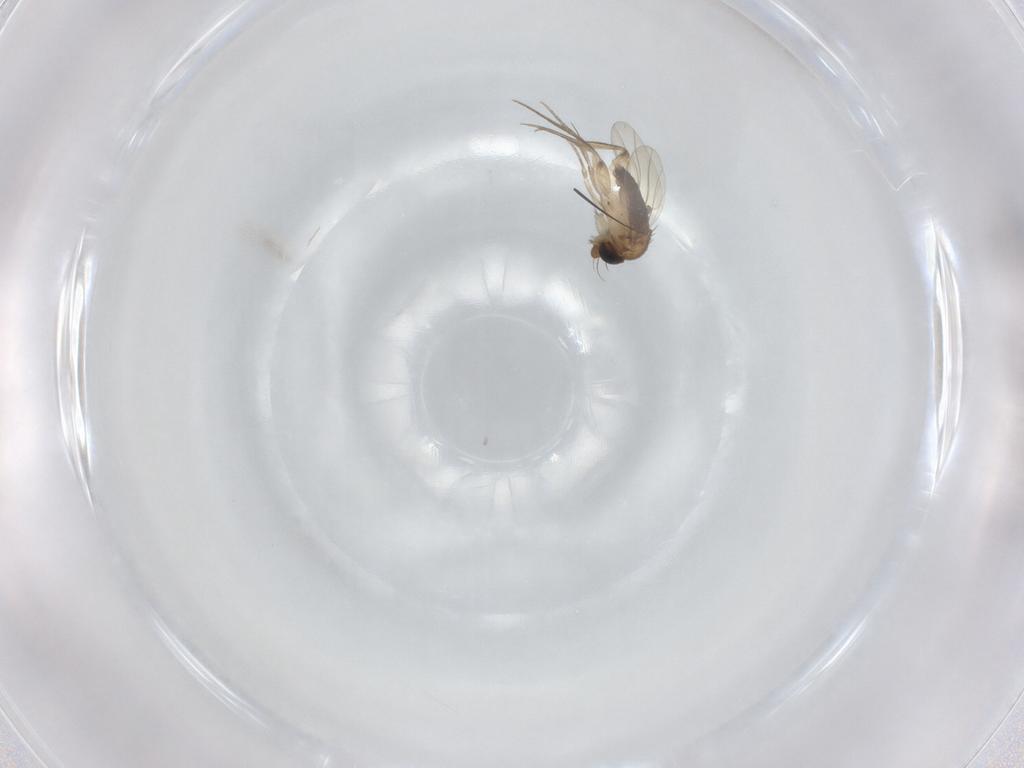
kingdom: Animalia
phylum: Arthropoda
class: Insecta
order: Diptera
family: Phoridae
